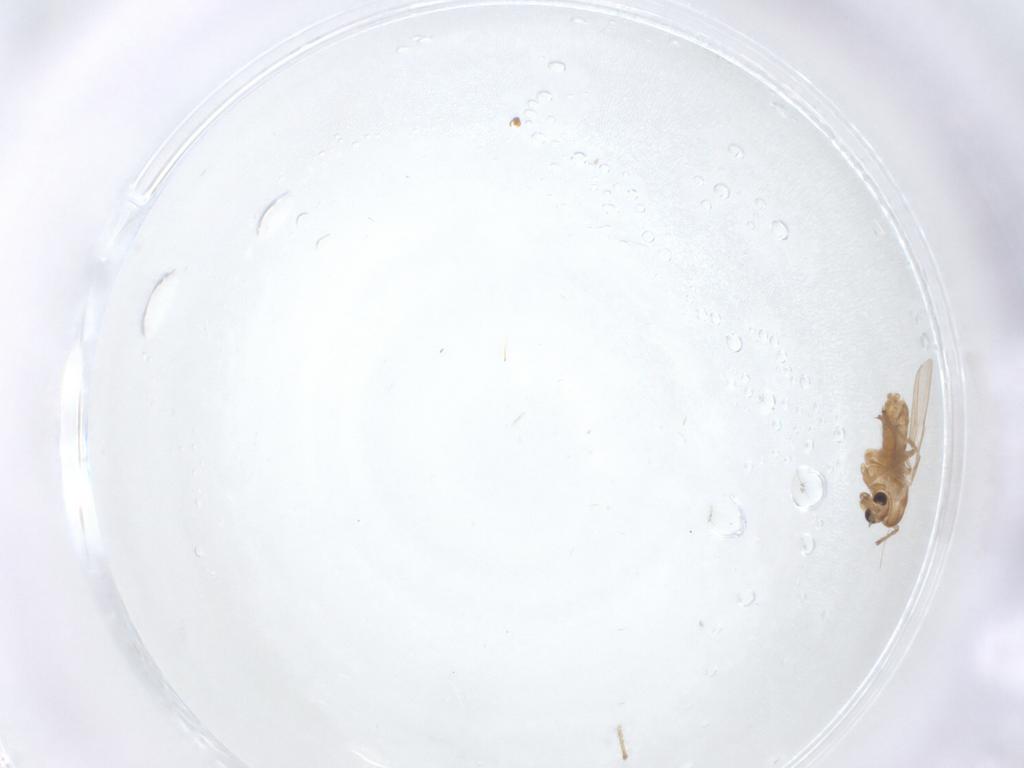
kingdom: Animalia
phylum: Arthropoda
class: Insecta
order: Diptera
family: Chironomidae
